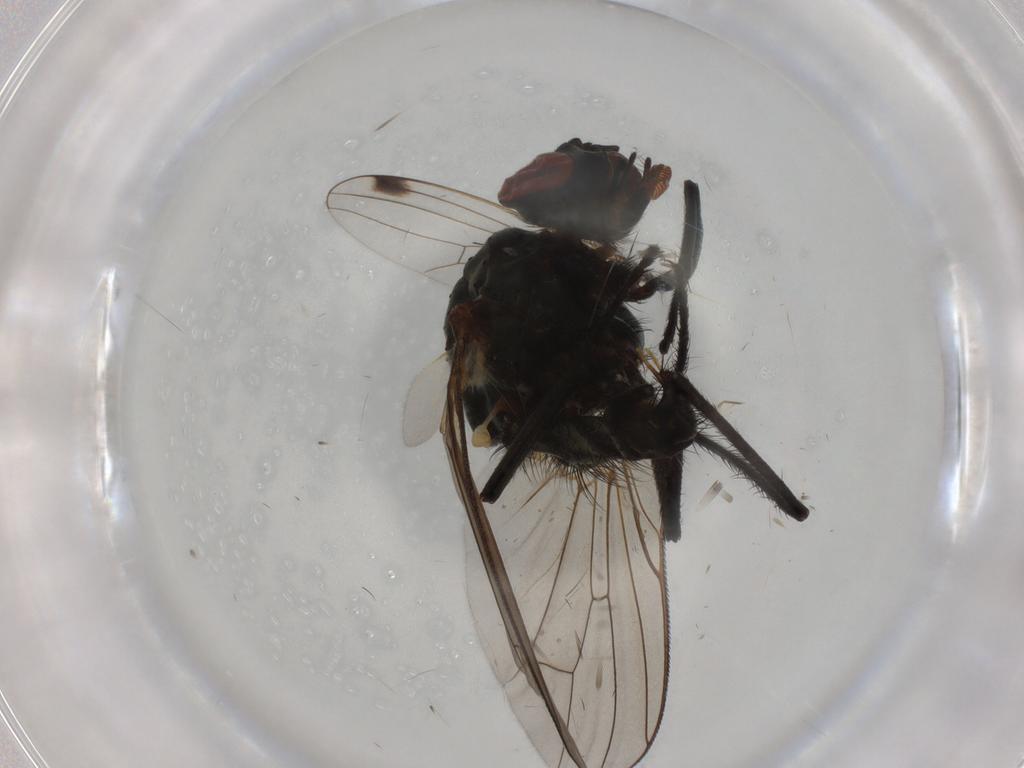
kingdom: Animalia
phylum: Arthropoda
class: Insecta
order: Diptera
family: Anthomyiidae
